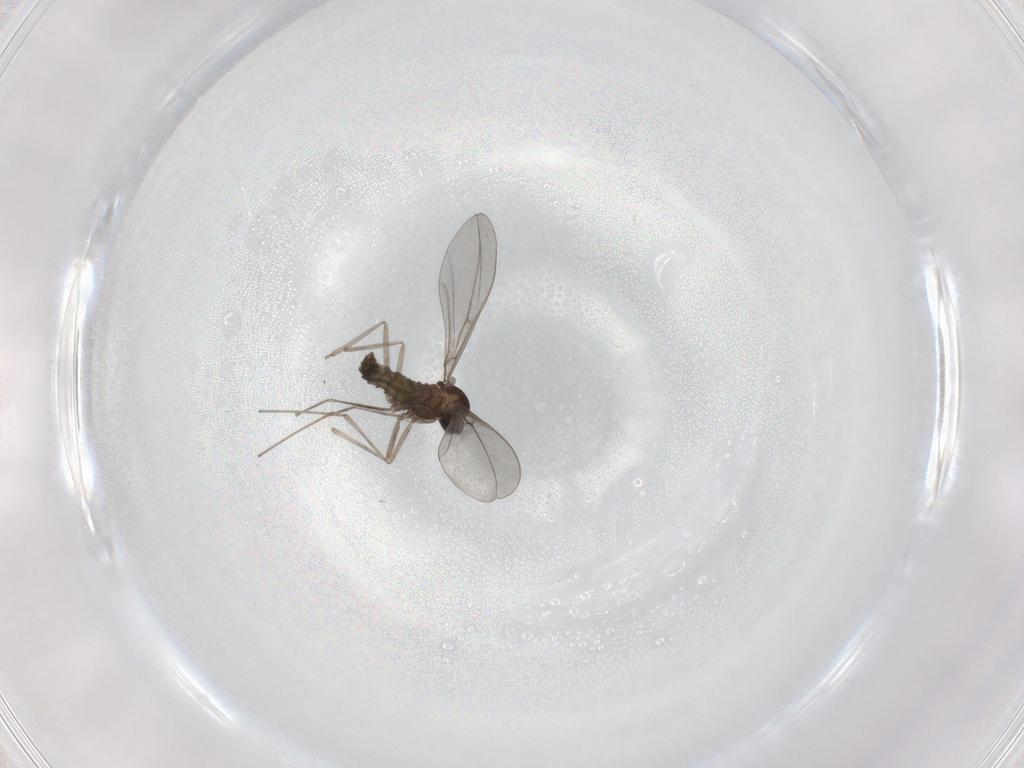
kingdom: Animalia
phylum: Arthropoda
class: Insecta
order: Diptera
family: Cecidomyiidae
